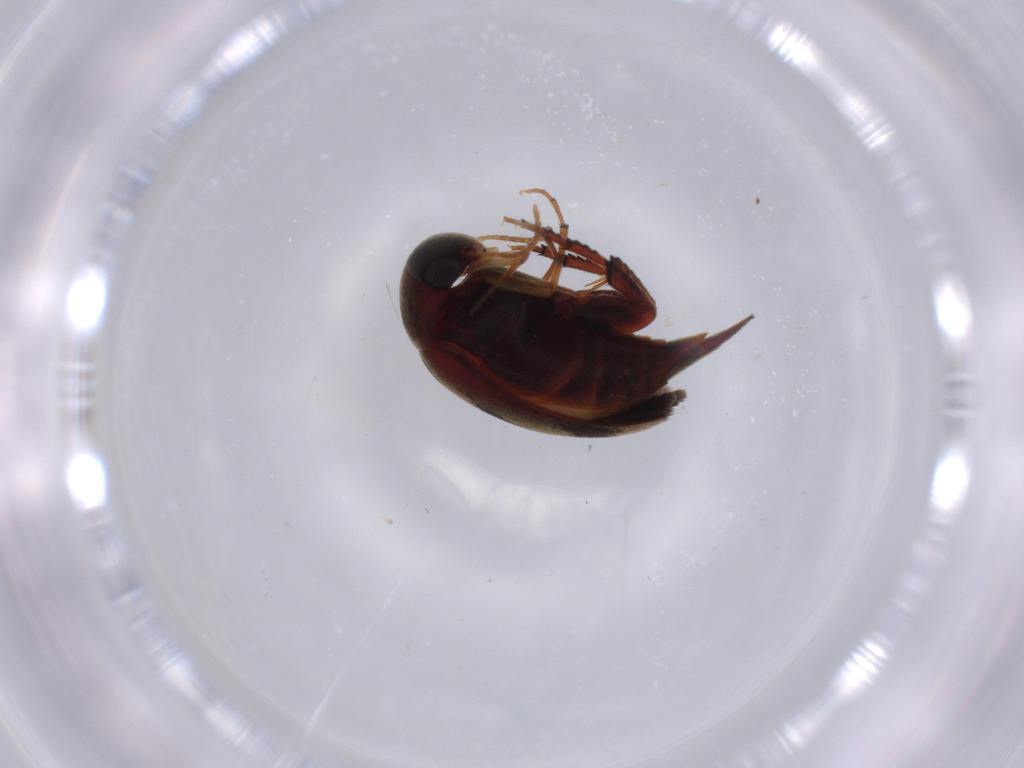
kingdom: Animalia
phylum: Arthropoda
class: Insecta
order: Coleoptera
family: Mordellidae
